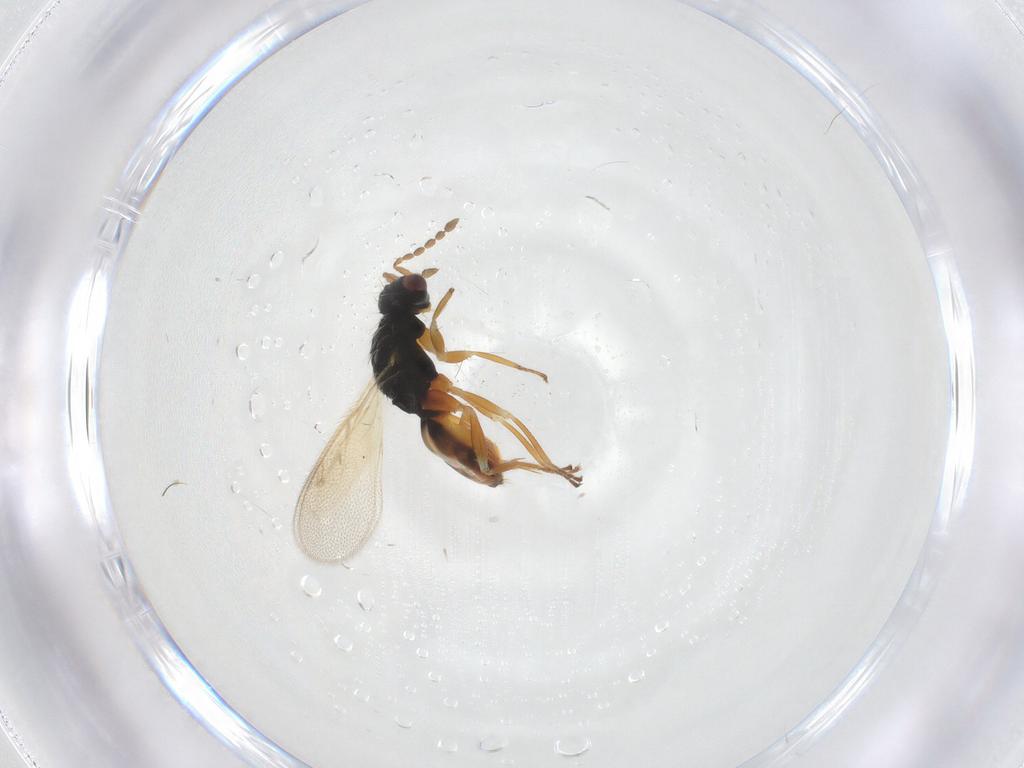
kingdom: Animalia
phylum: Arthropoda
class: Insecta
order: Hymenoptera
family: Eulophidae
